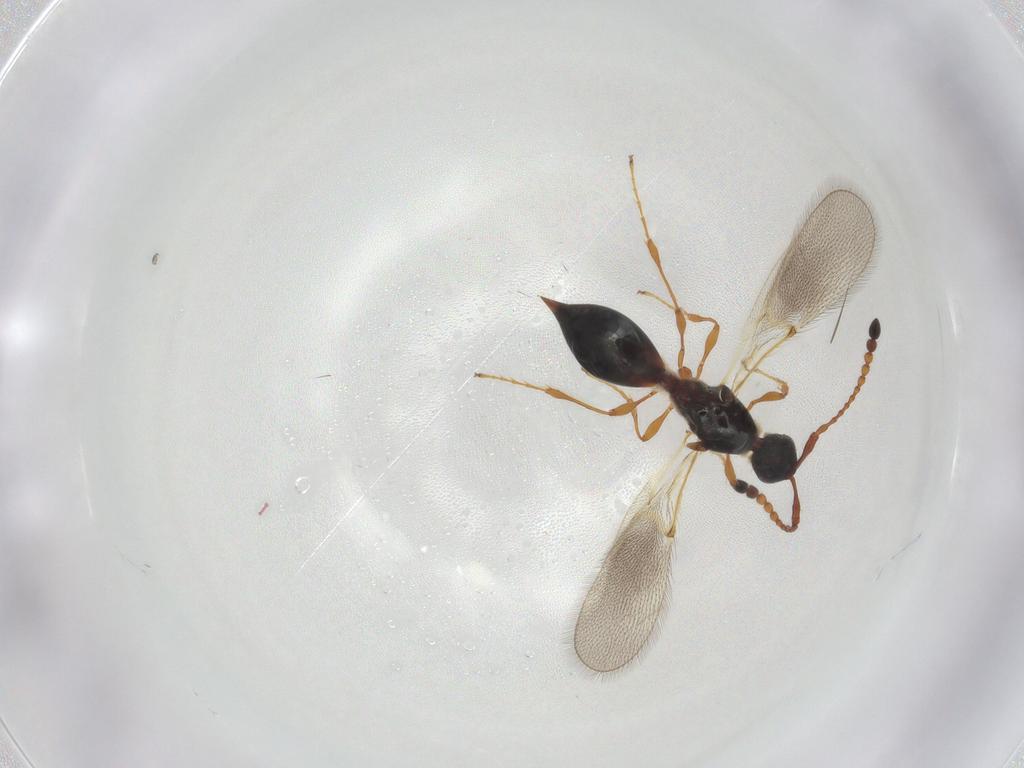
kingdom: Animalia
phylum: Arthropoda
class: Insecta
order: Hymenoptera
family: Diapriidae
